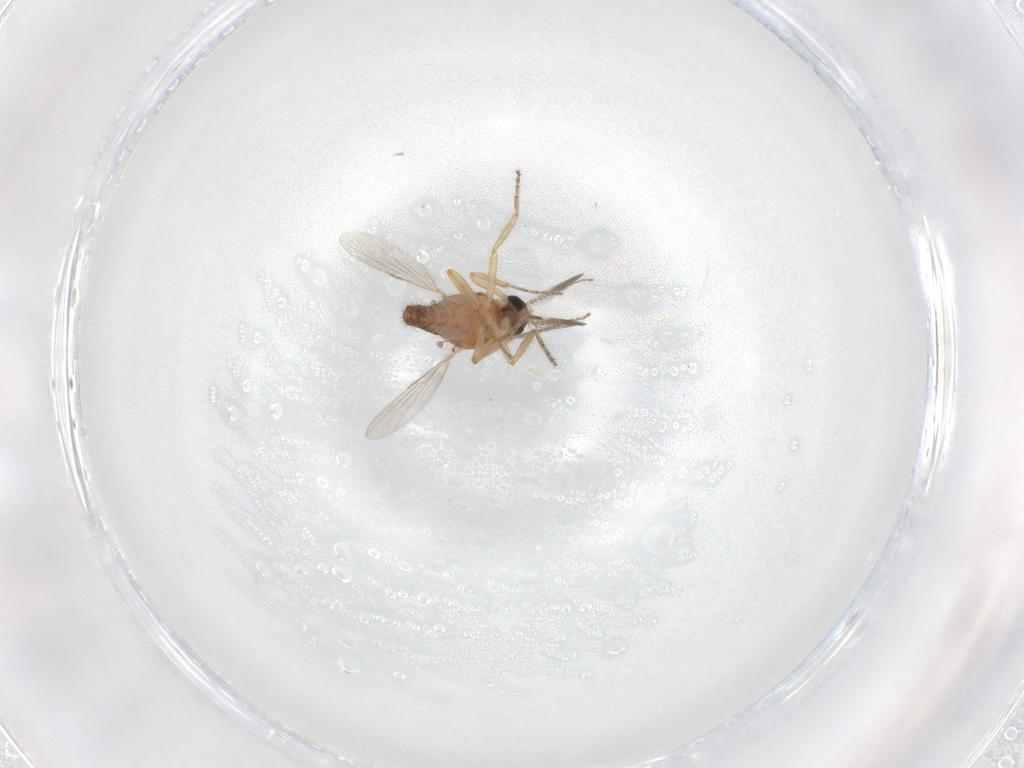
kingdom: Animalia
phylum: Arthropoda
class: Insecta
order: Diptera
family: Ceratopogonidae
